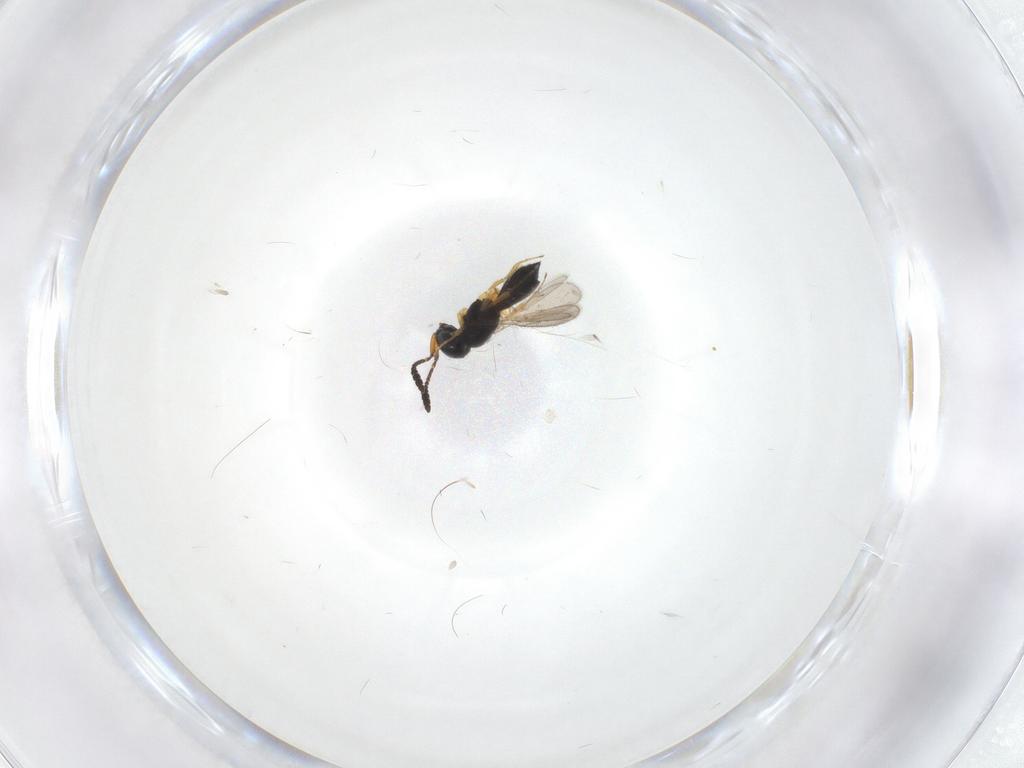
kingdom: Animalia
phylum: Arthropoda
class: Insecta
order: Hymenoptera
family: Scelionidae
